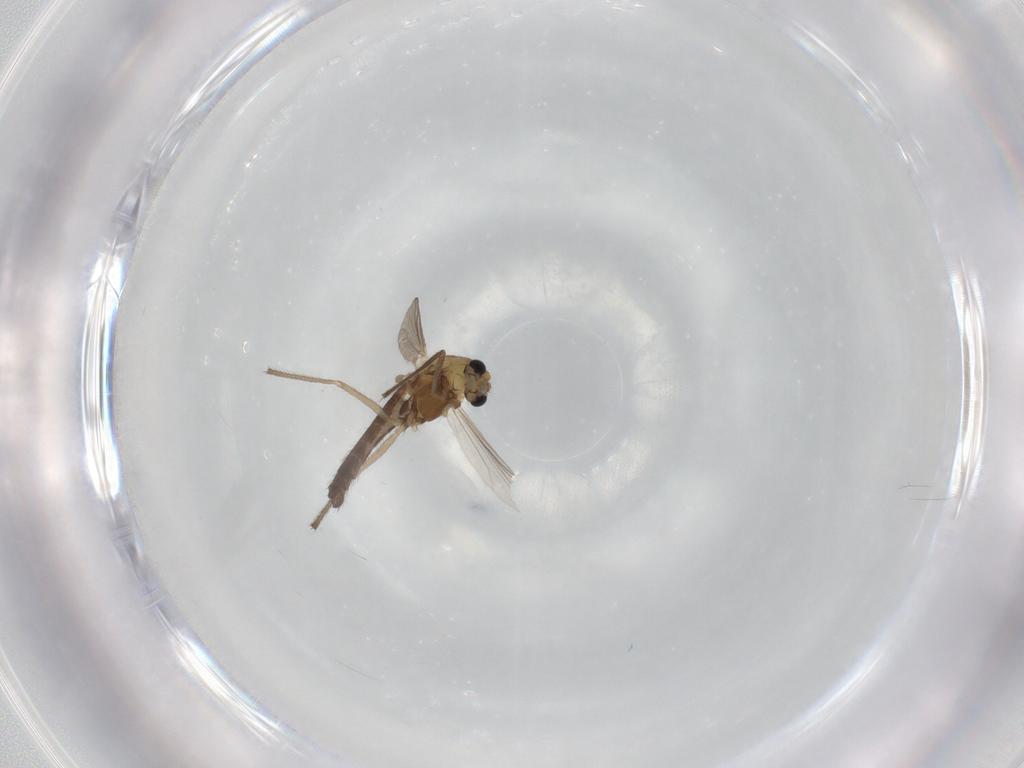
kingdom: Animalia
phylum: Arthropoda
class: Insecta
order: Diptera
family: Chironomidae
